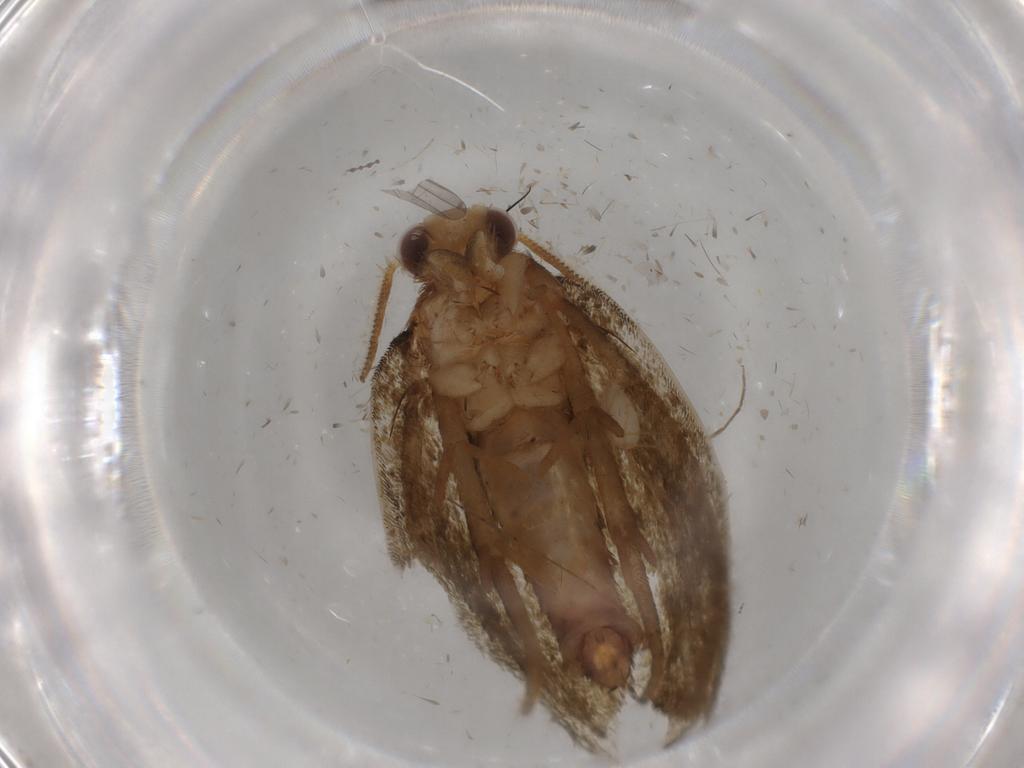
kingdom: Animalia
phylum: Arthropoda
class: Insecta
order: Lepidoptera
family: Geometridae
